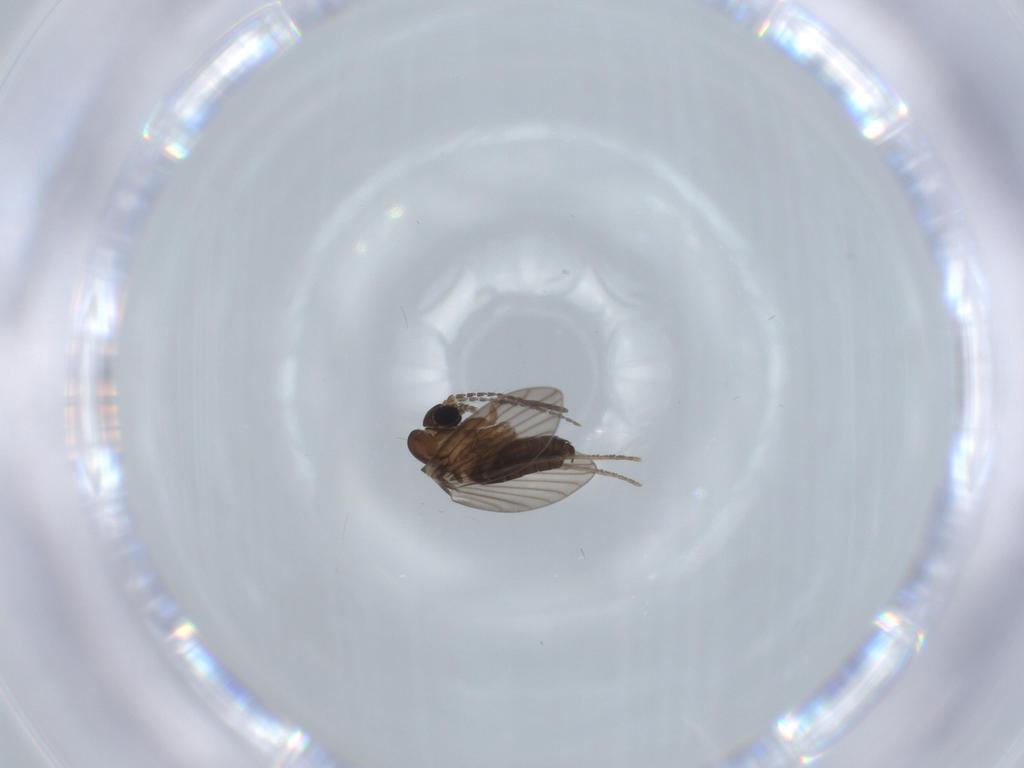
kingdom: Animalia
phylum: Arthropoda
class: Insecta
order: Diptera
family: Psychodidae
